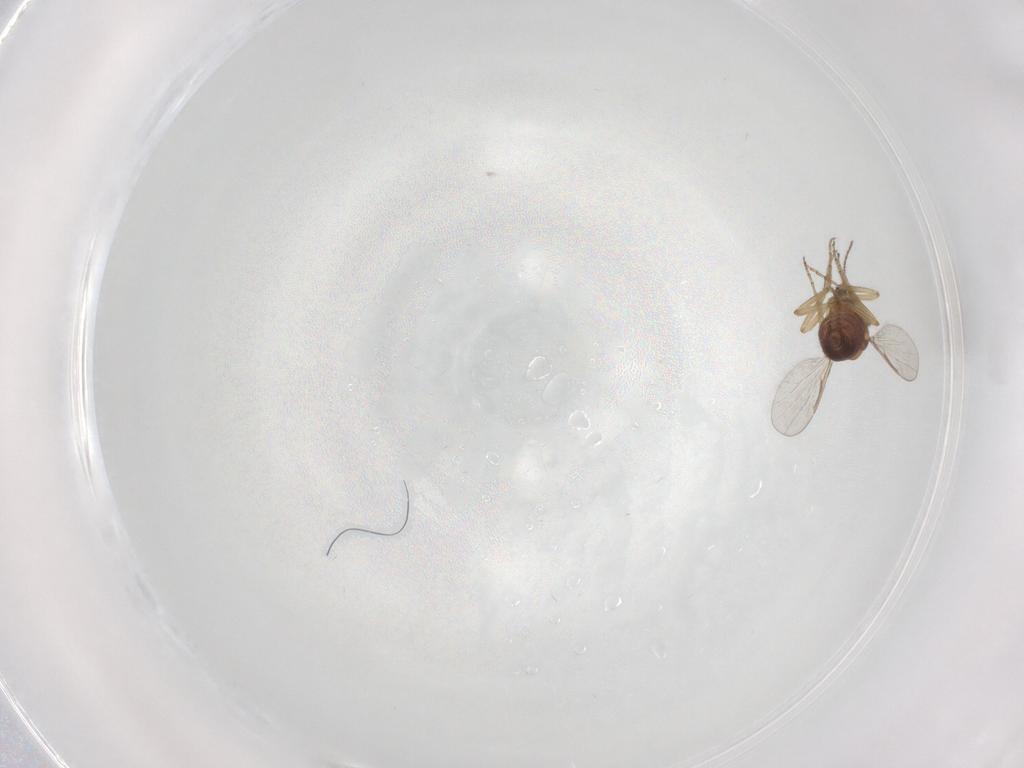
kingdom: Animalia
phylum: Arthropoda
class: Insecta
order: Diptera
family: Ceratopogonidae
